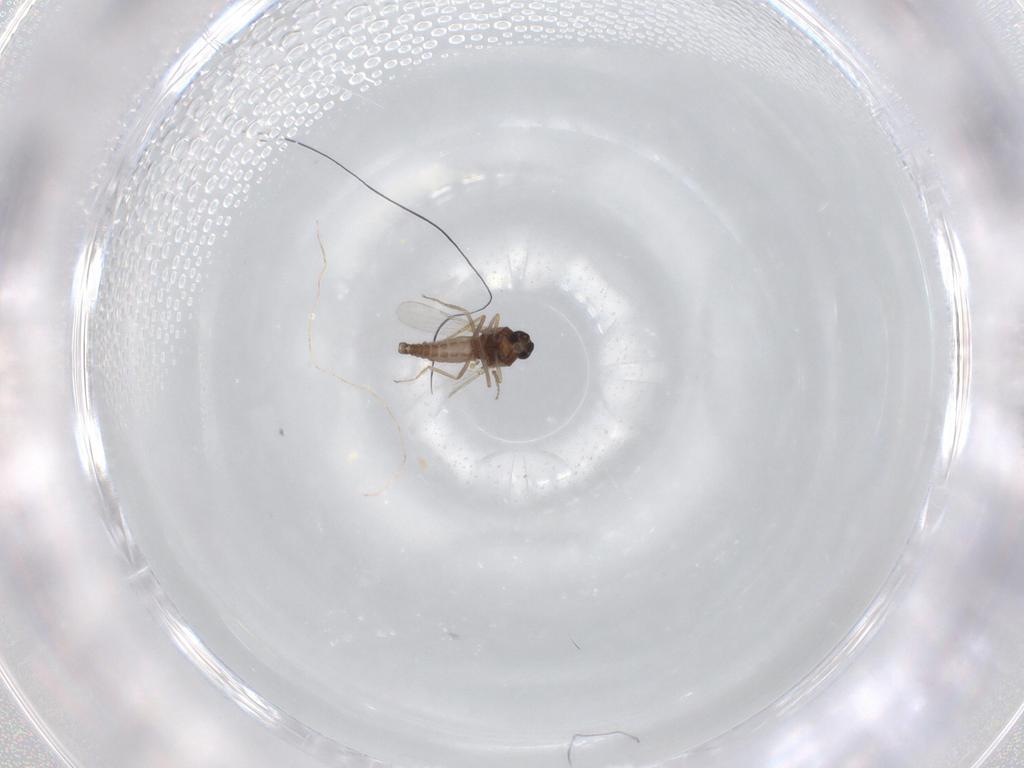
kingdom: Animalia
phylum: Arthropoda
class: Insecta
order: Diptera
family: Ceratopogonidae
